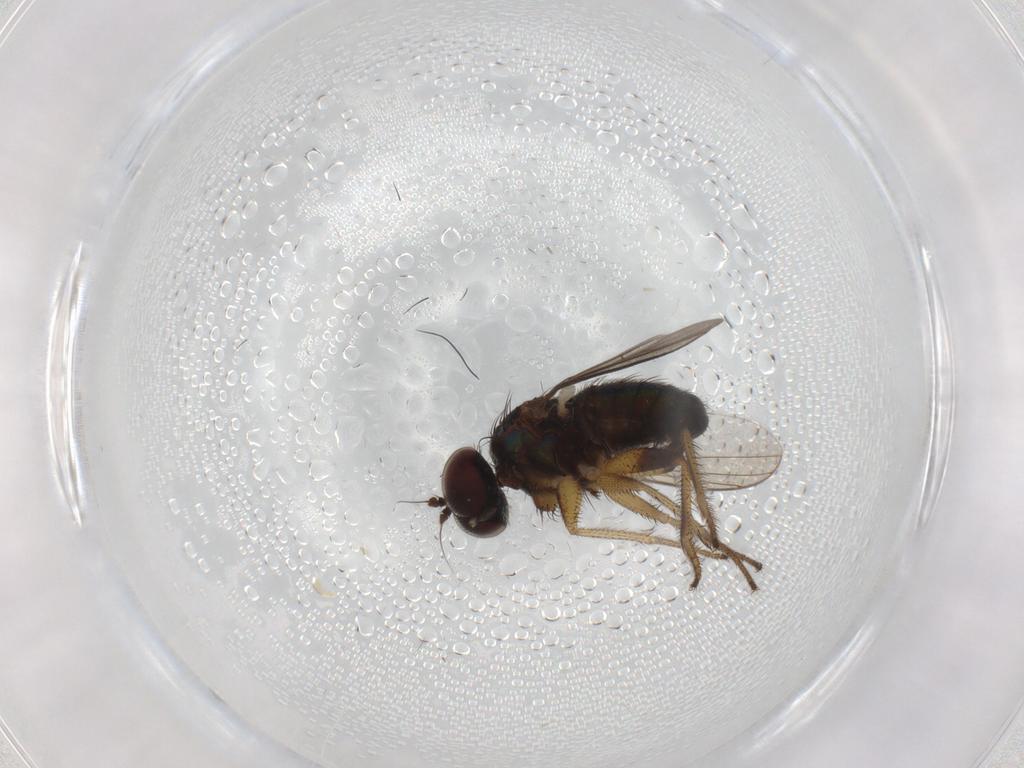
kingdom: Animalia
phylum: Arthropoda
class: Insecta
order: Diptera
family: Dolichopodidae
